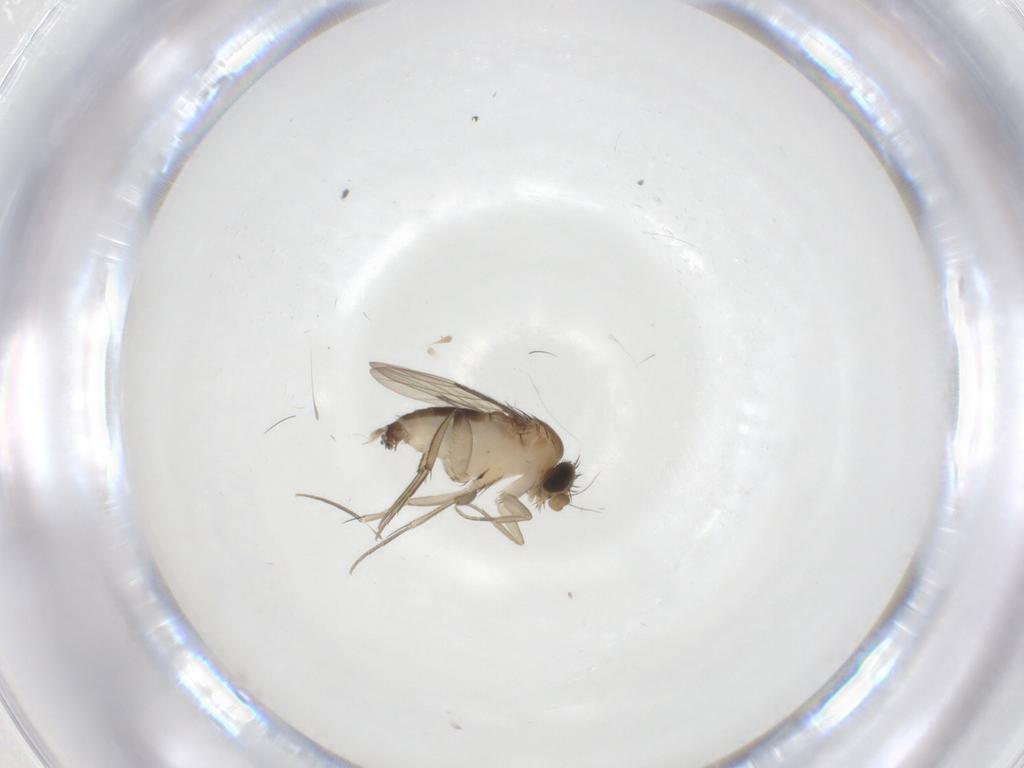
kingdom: Animalia
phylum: Arthropoda
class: Insecta
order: Diptera
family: Phoridae
